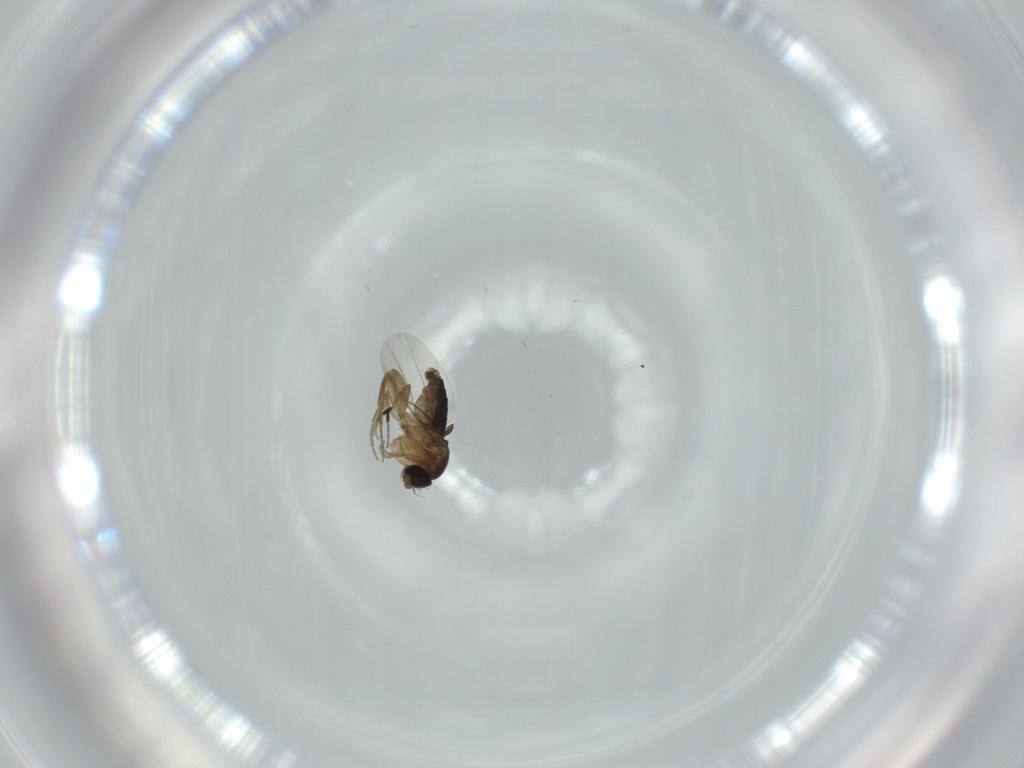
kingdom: Animalia
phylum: Arthropoda
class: Insecta
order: Diptera
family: Phoridae
